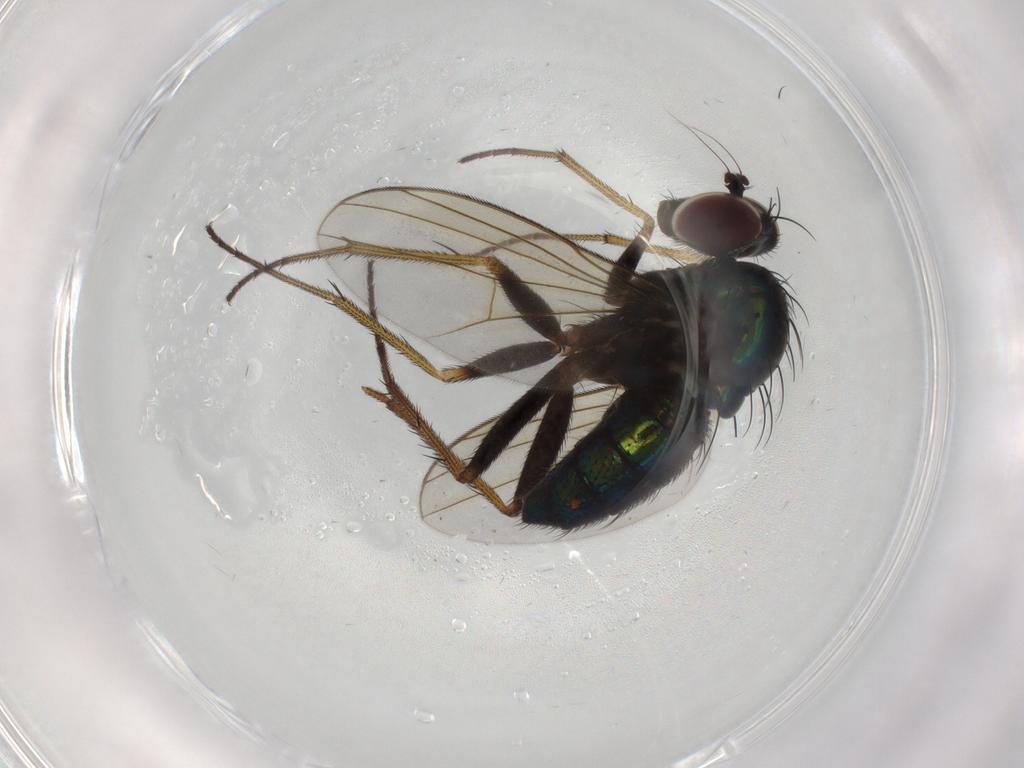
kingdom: Animalia
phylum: Arthropoda
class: Insecta
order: Diptera
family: Dolichopodidae
